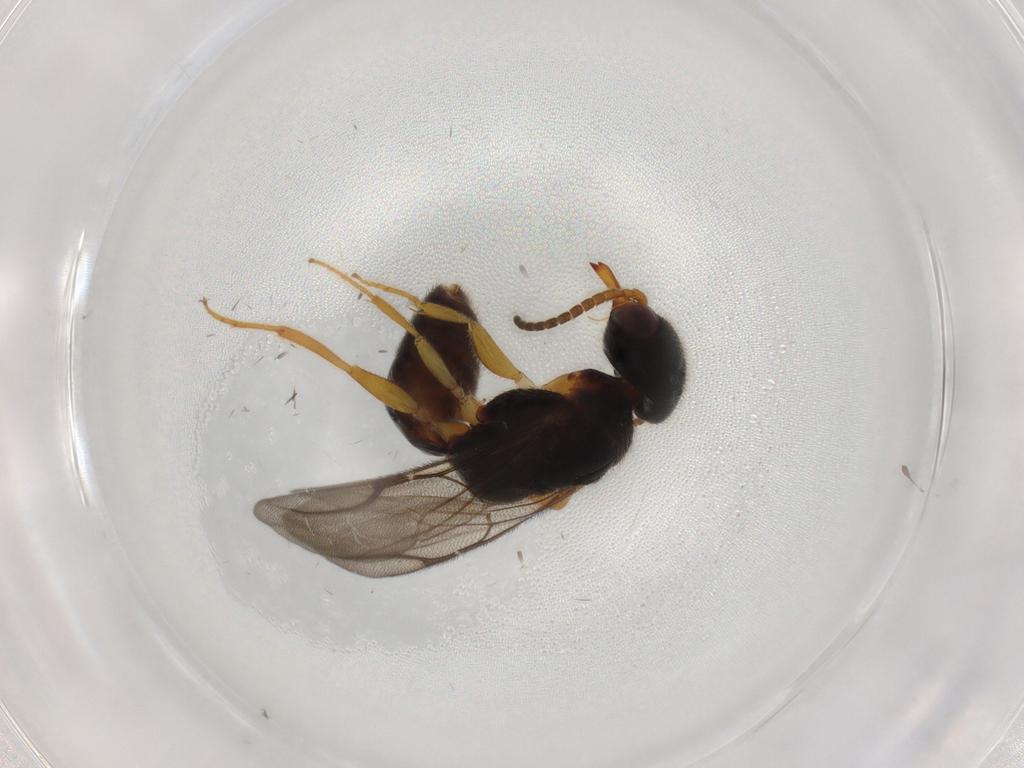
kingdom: Animalia
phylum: Arthropoda
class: Insecta
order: Hymenoptera
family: Bethylidae
